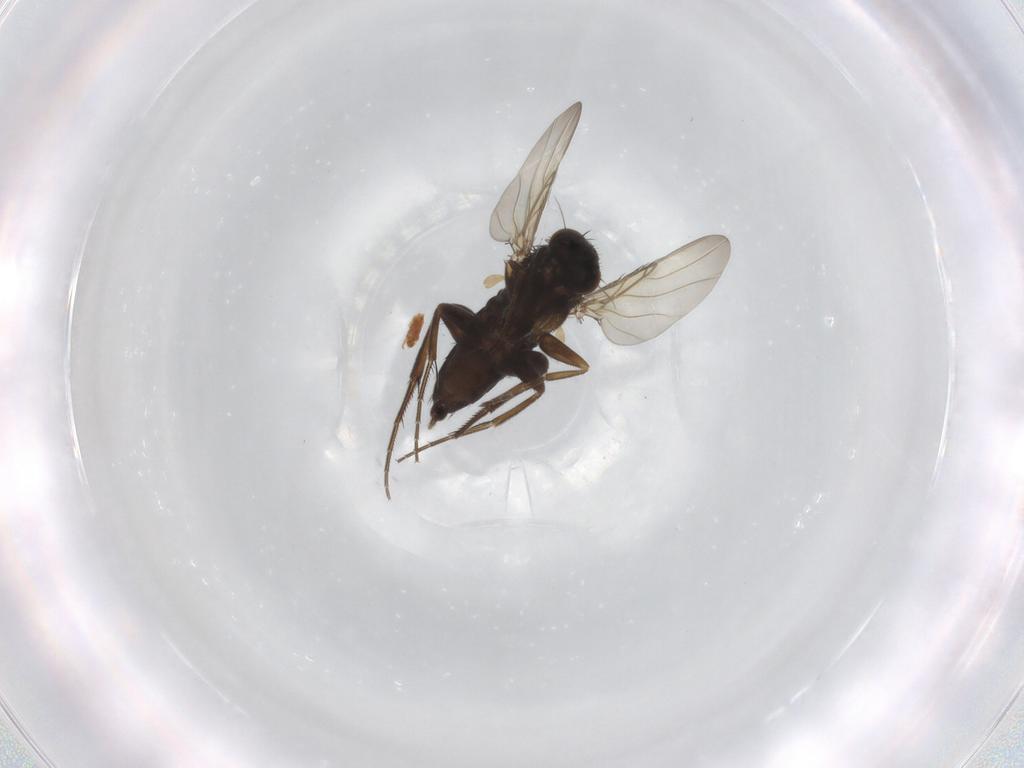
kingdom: Animalia
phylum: Arthropoda
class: Insecta
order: Diptera
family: Phoridae
